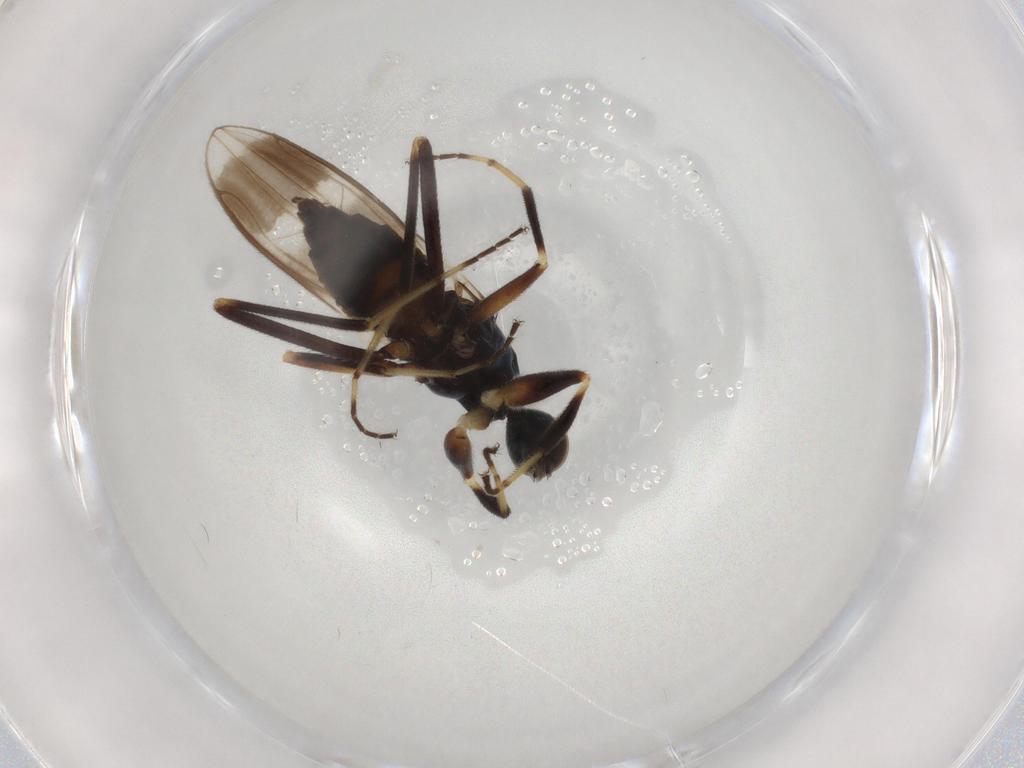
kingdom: Animalia
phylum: Arthropoda
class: Insecta
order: Diptera
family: Hybotidae
